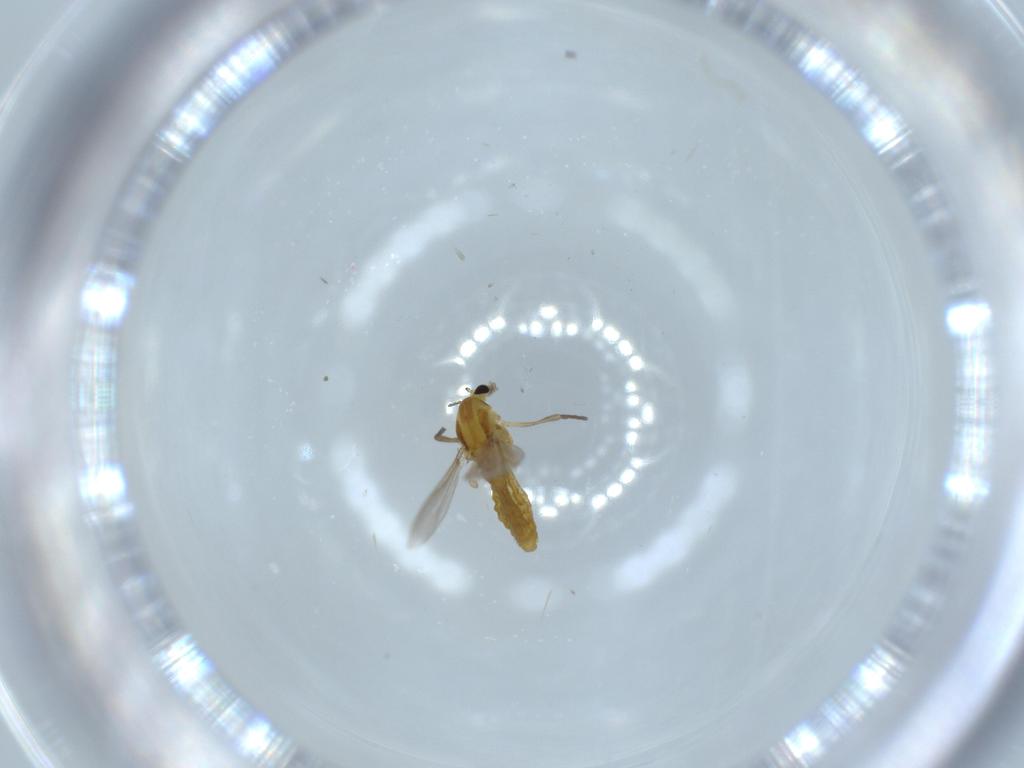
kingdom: Animalia
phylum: Arthropoda
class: Insecta
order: Diptera
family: Chironomidae
